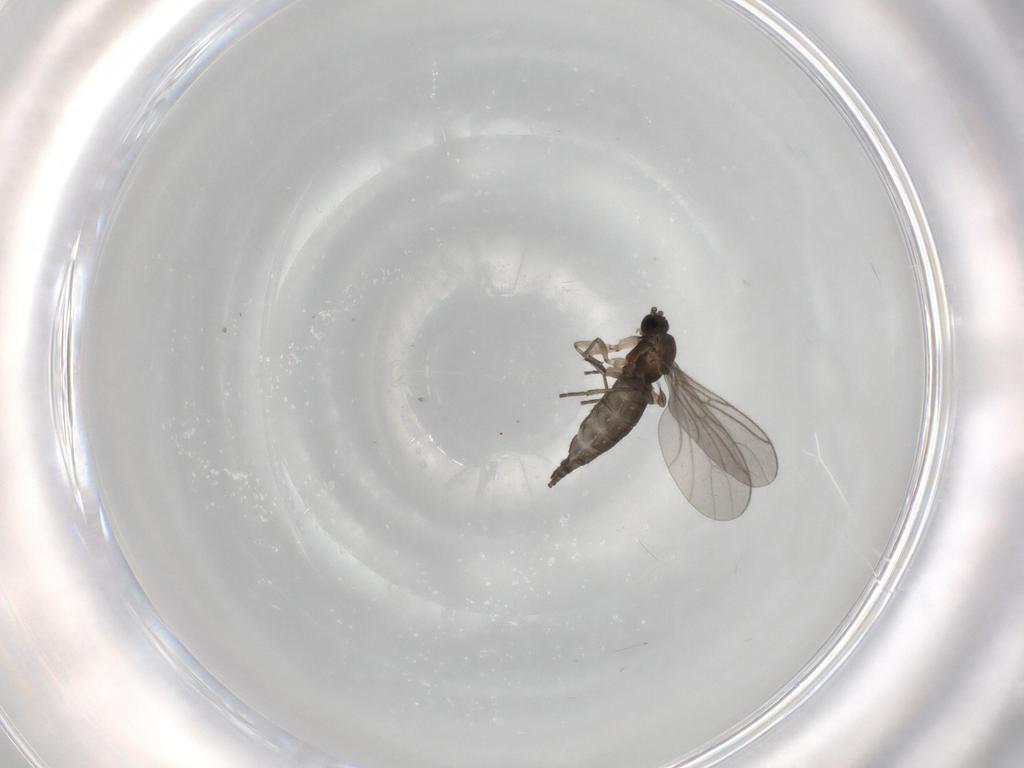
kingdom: Animalia
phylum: Arthropoda
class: Insecta
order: Diptera
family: Sciaridae
